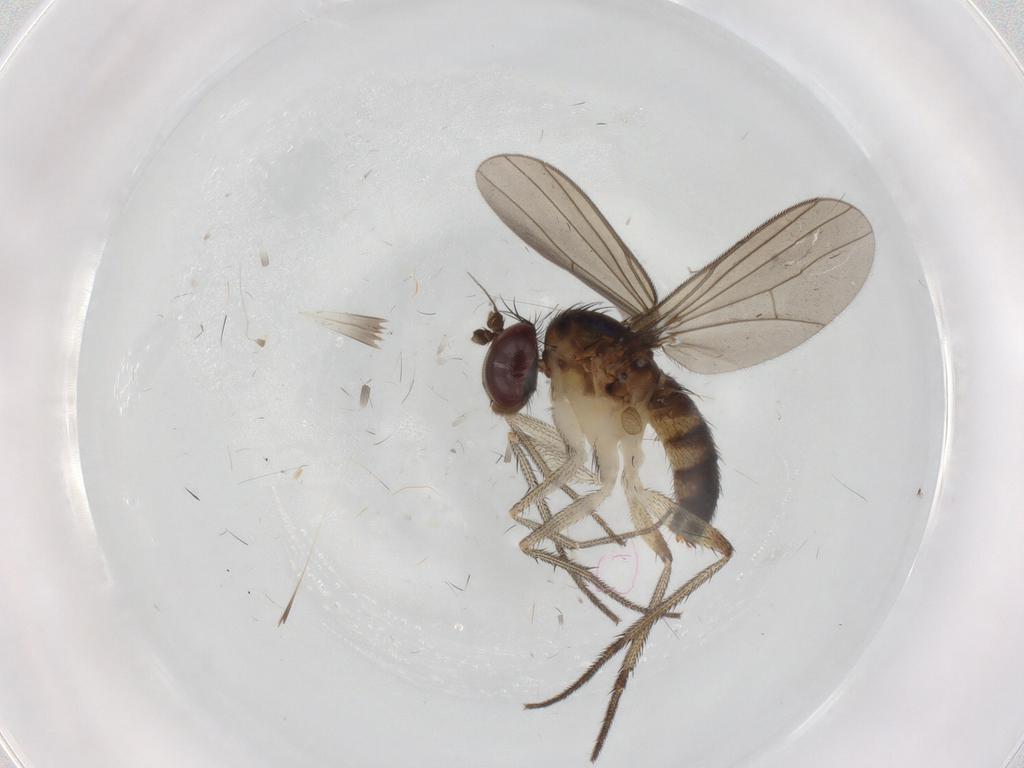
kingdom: Animalia
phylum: Arthropoda
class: Insecta
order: Diptera
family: Dolichopodidae
